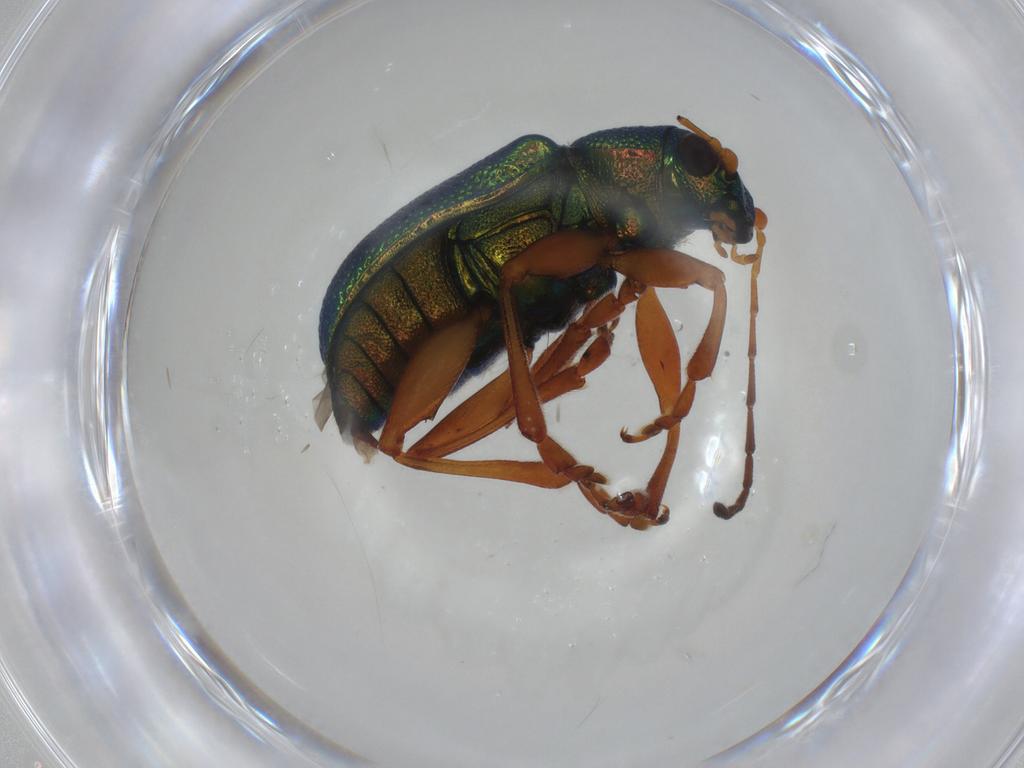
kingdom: Animalia
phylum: Arthropoda
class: Insecta
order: Coleoptera
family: Chrysomelidae
